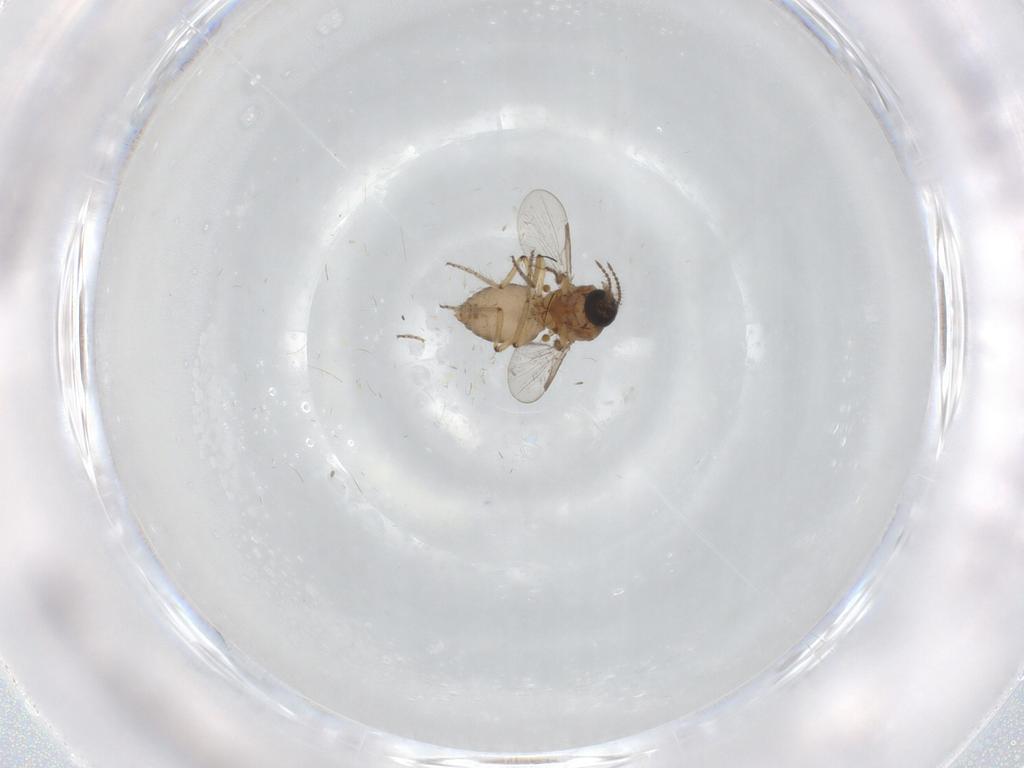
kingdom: Animalia
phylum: Arthropoda
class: Insecta
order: Diptera
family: Ceratopogonidae
